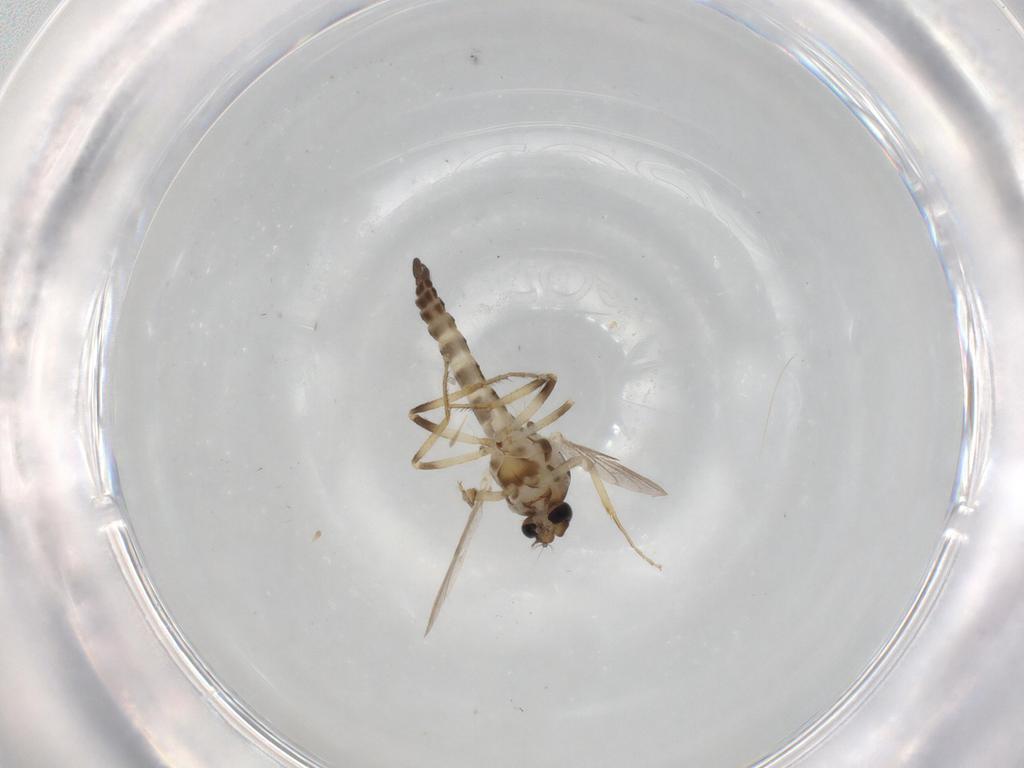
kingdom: Animalia
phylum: Arthropoda
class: Insecta
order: Diptera
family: Ceratopogonidae
